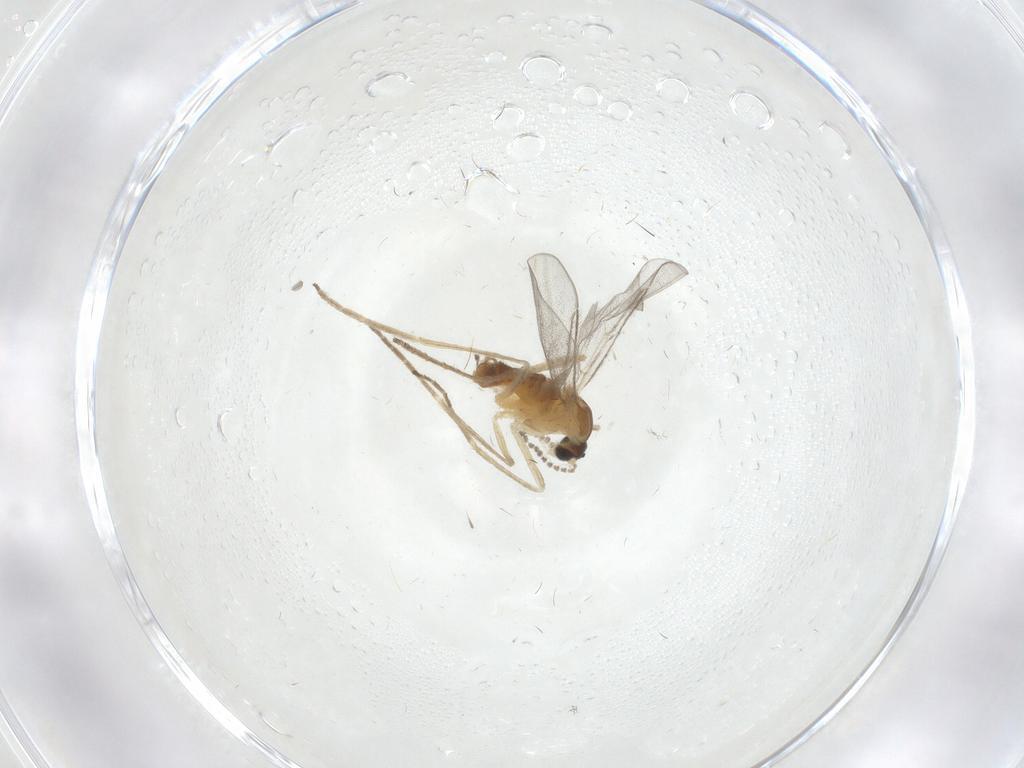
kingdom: Animalia
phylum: Arthropoda
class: Insecta
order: Diptera
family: Cecidomyiidae
